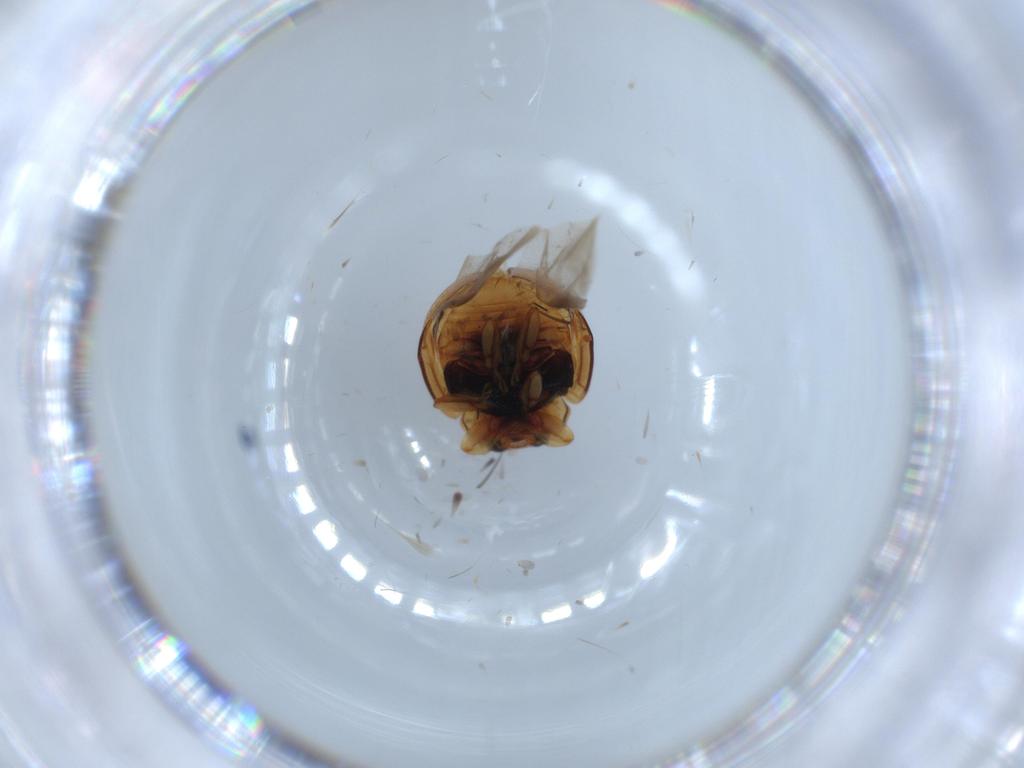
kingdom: Animalia
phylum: Arthropoda
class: Insecta
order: Coleoptera
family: Coccinellidae
